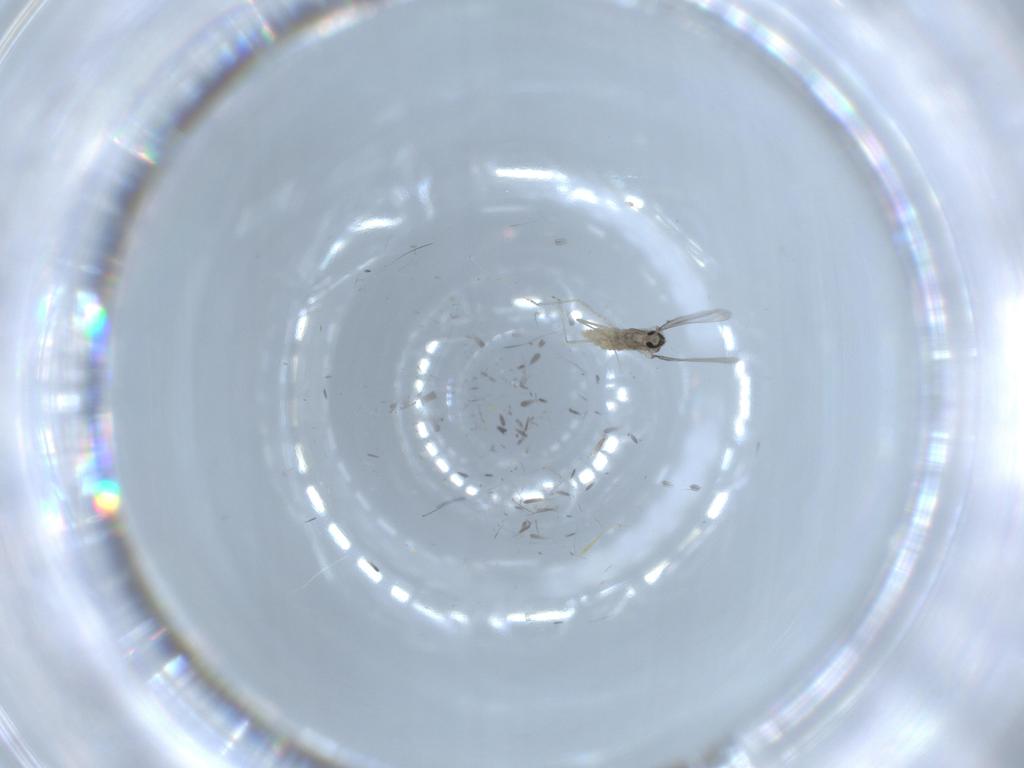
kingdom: Animalia
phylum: Arthropoda
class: Insecta
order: Diptera
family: Cecidomyiidae
